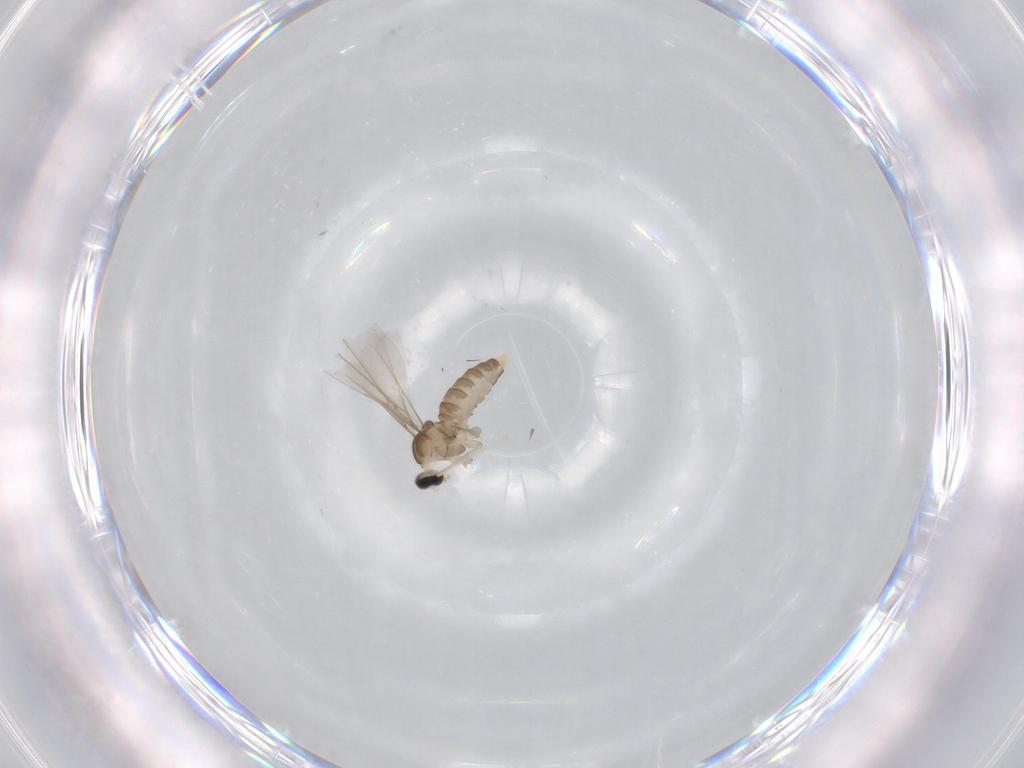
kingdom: Animalia
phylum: Arthropoda
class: Insecta
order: Diptera
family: Cecidomyiidae
